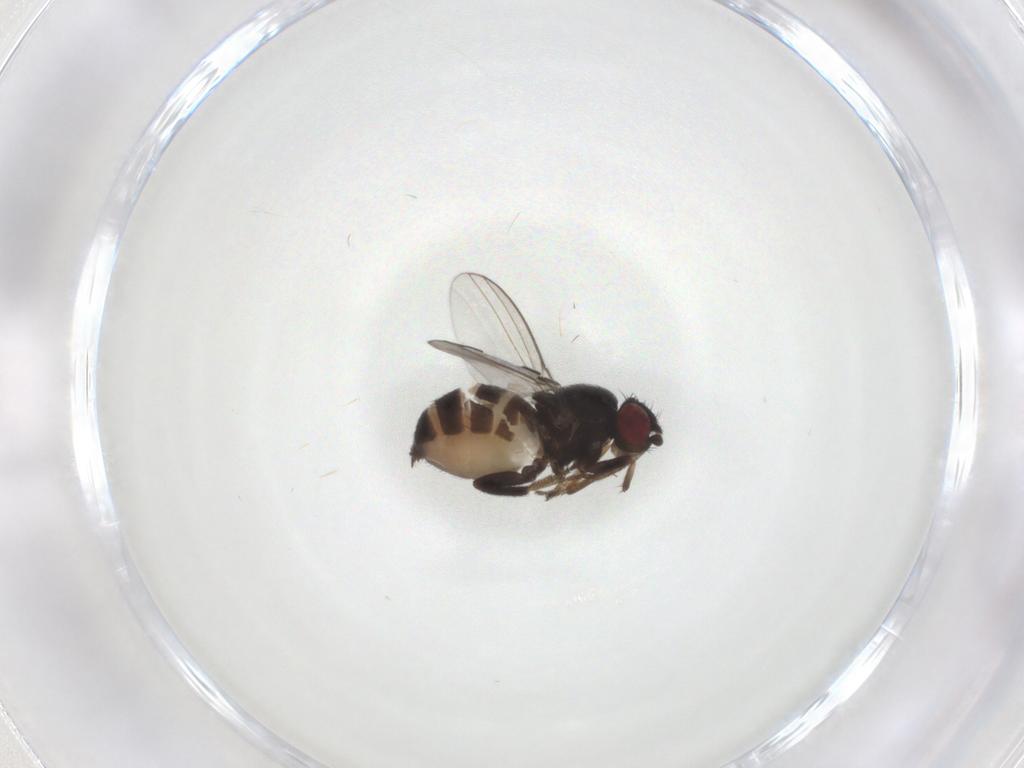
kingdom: Animalia
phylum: Arthropoda
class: Insecta
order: Diptera
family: Milichiidae
